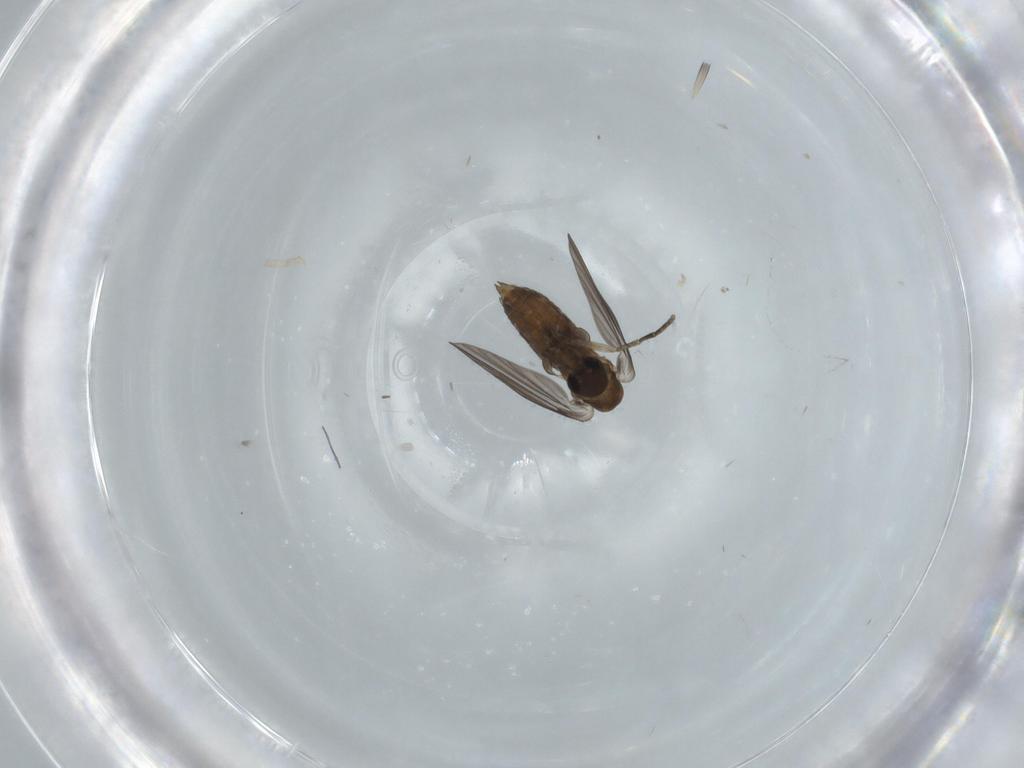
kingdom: Animalia
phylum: Arthropoda
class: Insecta
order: Diptera
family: Psychodidae
